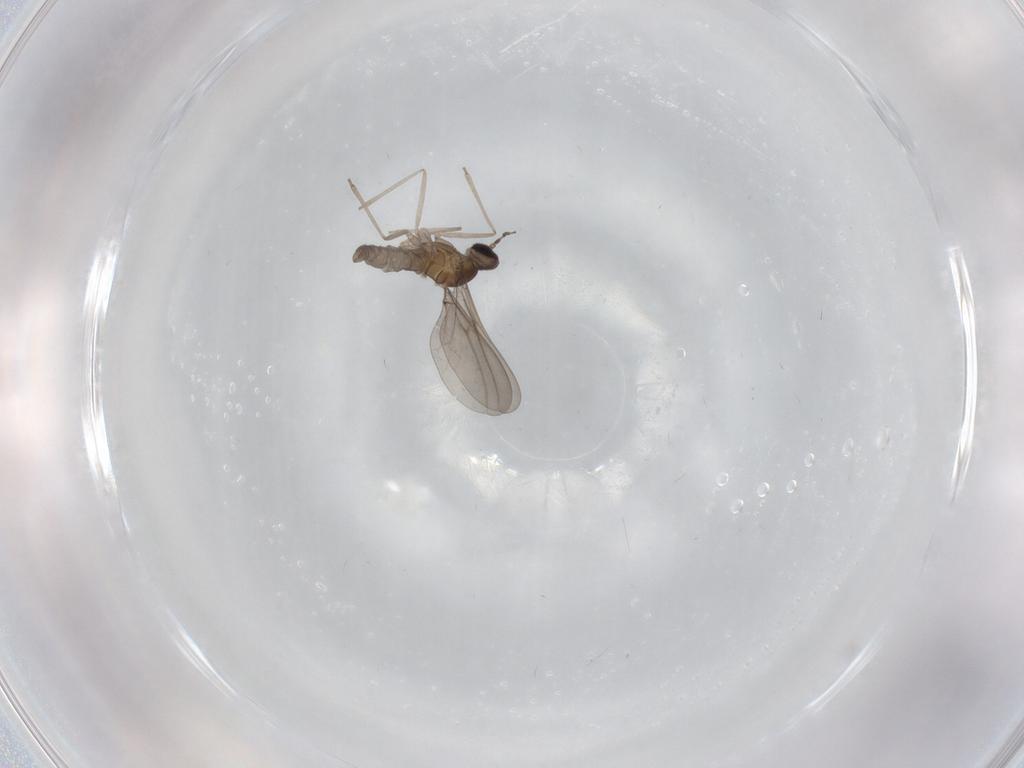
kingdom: Animalia
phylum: Arthropoda
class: Insecta
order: Diptera
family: Cecidomyiidae
